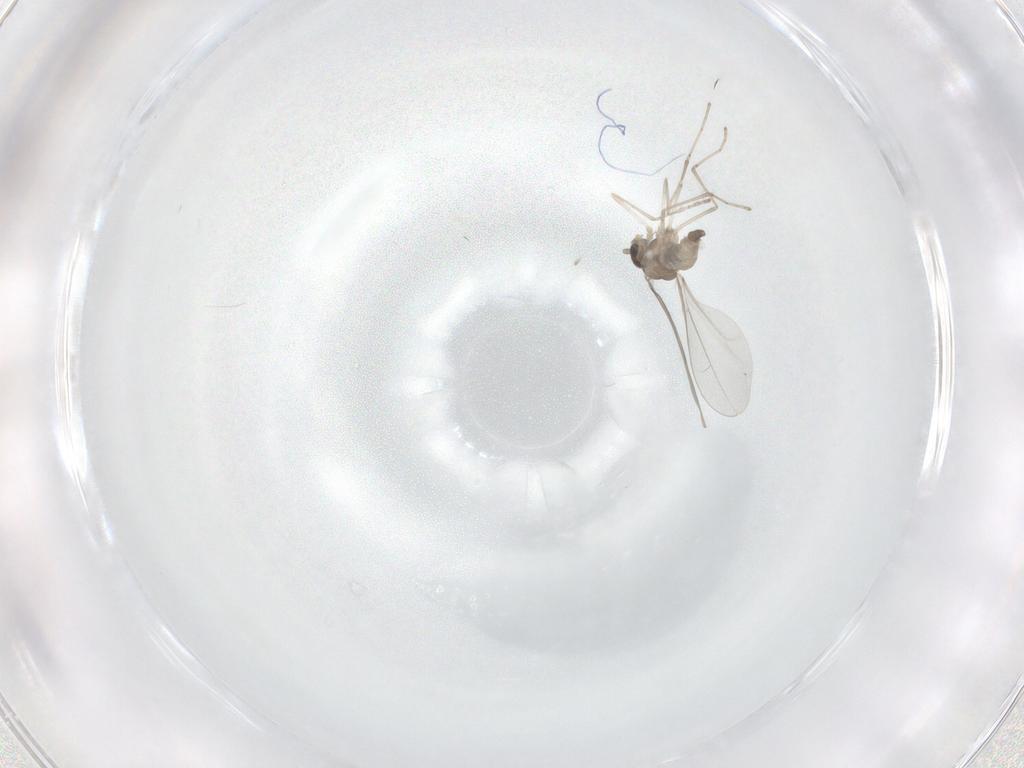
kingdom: Animalia
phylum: Arthropoda
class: Insecta
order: Diptera
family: Cecidomyiidae
